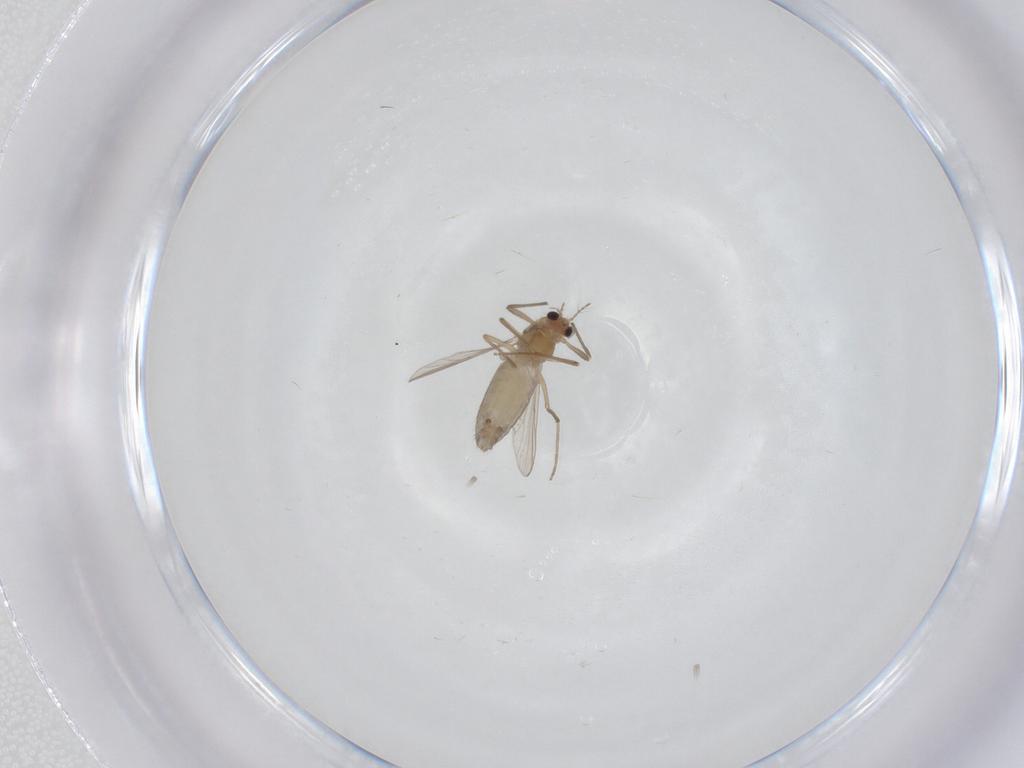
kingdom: Animalia
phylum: Arthropoda
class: Insecta
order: Diptera
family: Chironomidae
